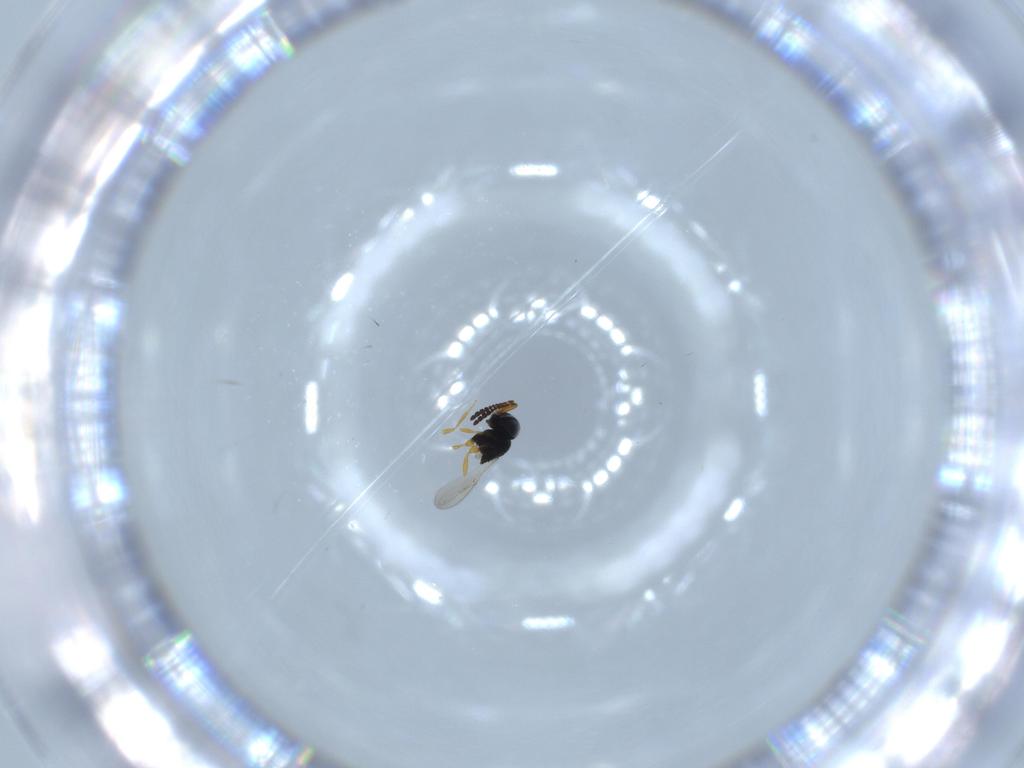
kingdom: Animalia
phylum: Arthropoda
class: Insecta
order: Hymenoptera
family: Scelionidae
